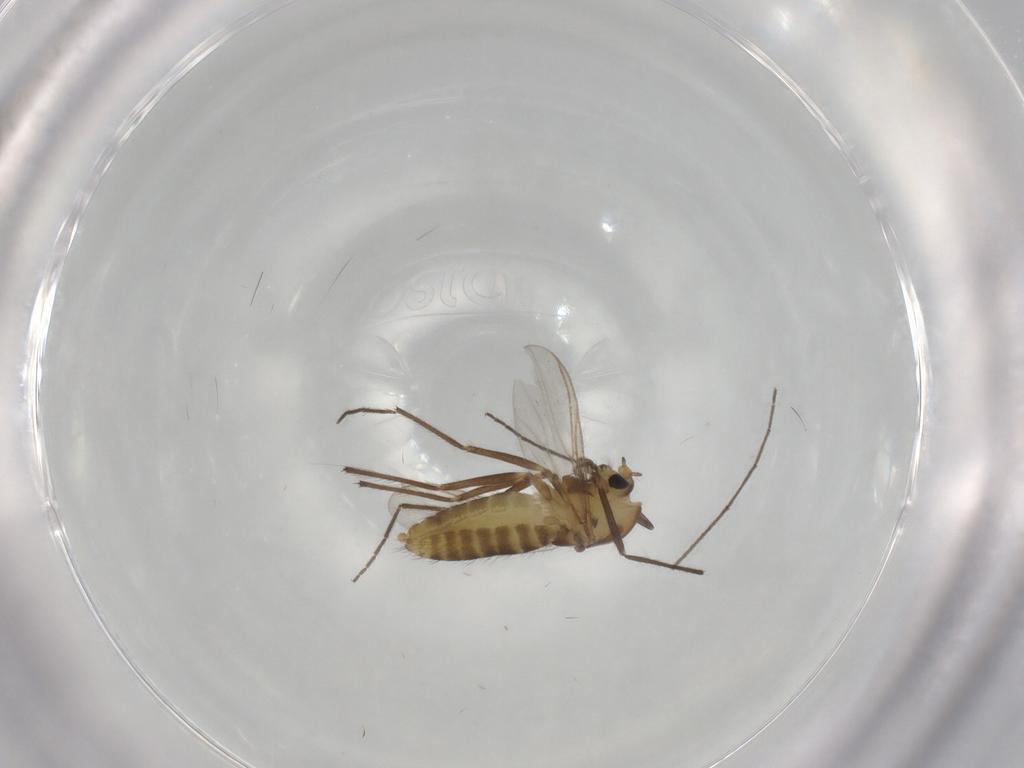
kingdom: Animalia
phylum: Arthropoda
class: Insecta
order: Diptera
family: Chironomidae
